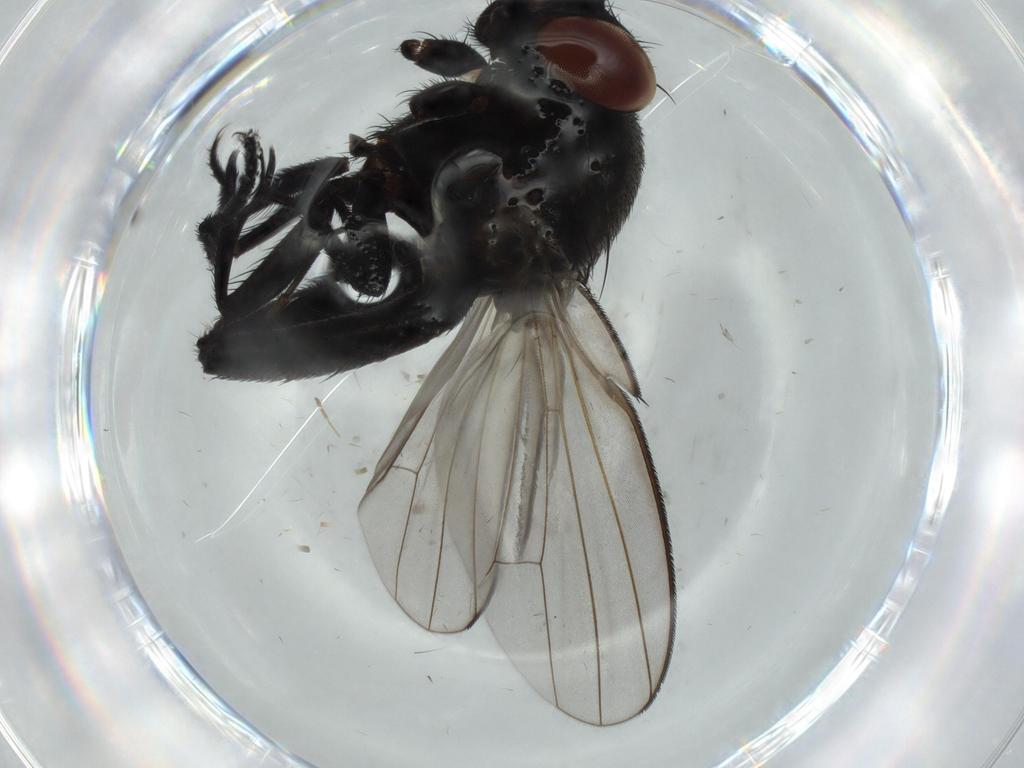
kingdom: Animalia
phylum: Arthropoda
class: Insecta
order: Diptera
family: Milichiidae
